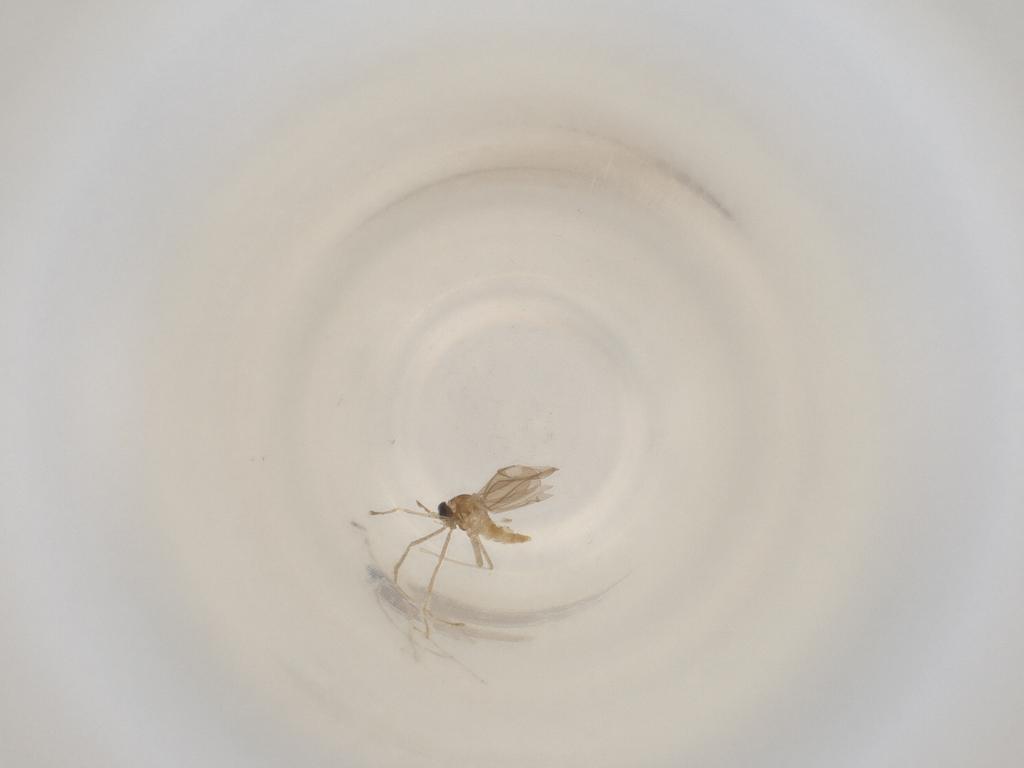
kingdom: Animalia
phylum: Arthropoda
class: Insecta
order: Diptera
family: Cecidomyiidae
